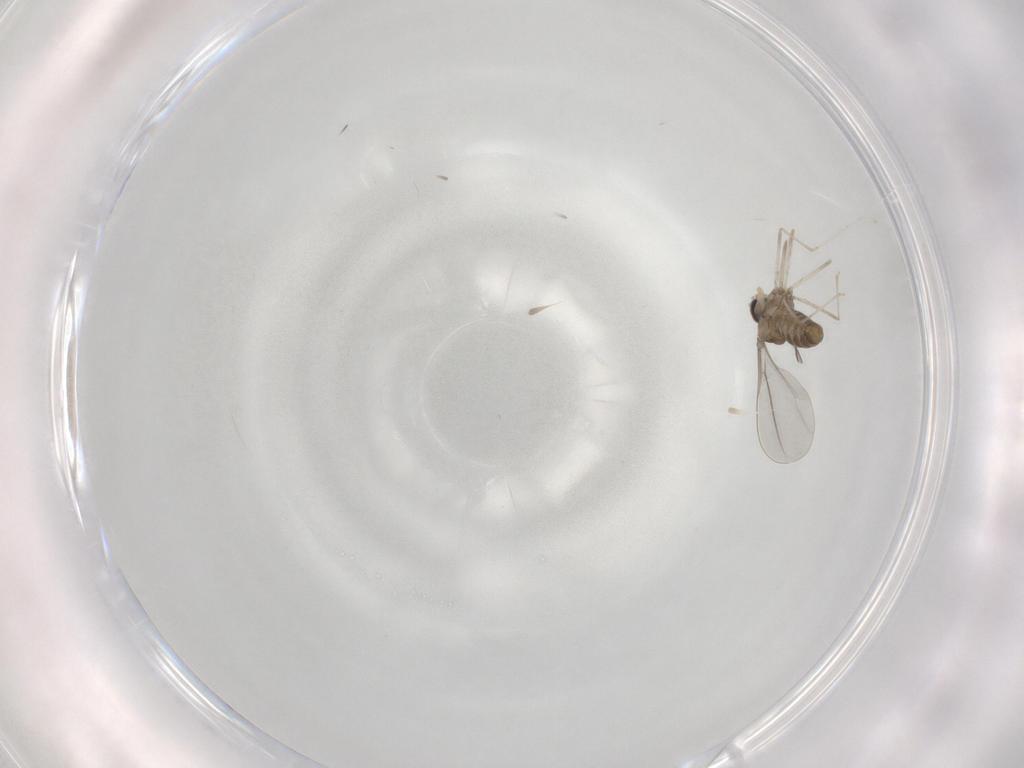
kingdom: Animalia
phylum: Arthropoda
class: Insecta
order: Diptera
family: Cecidomyiidae
